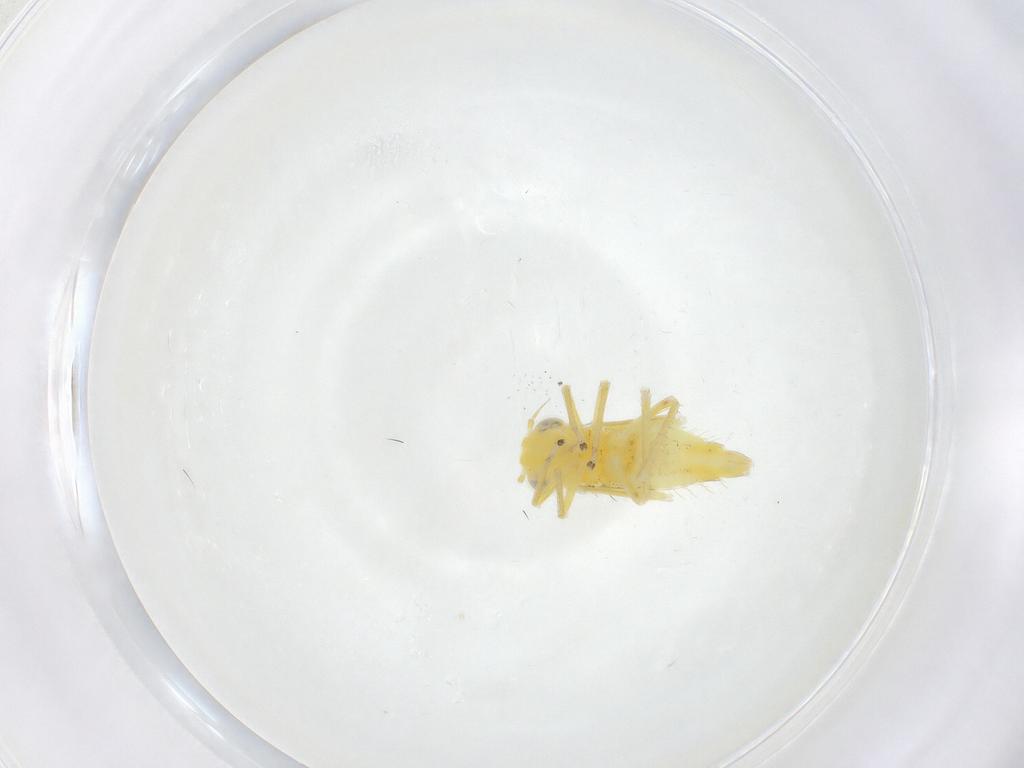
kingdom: Animalia
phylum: Arthropoda
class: Insecta
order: Hemiptera
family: Cicadellidae
